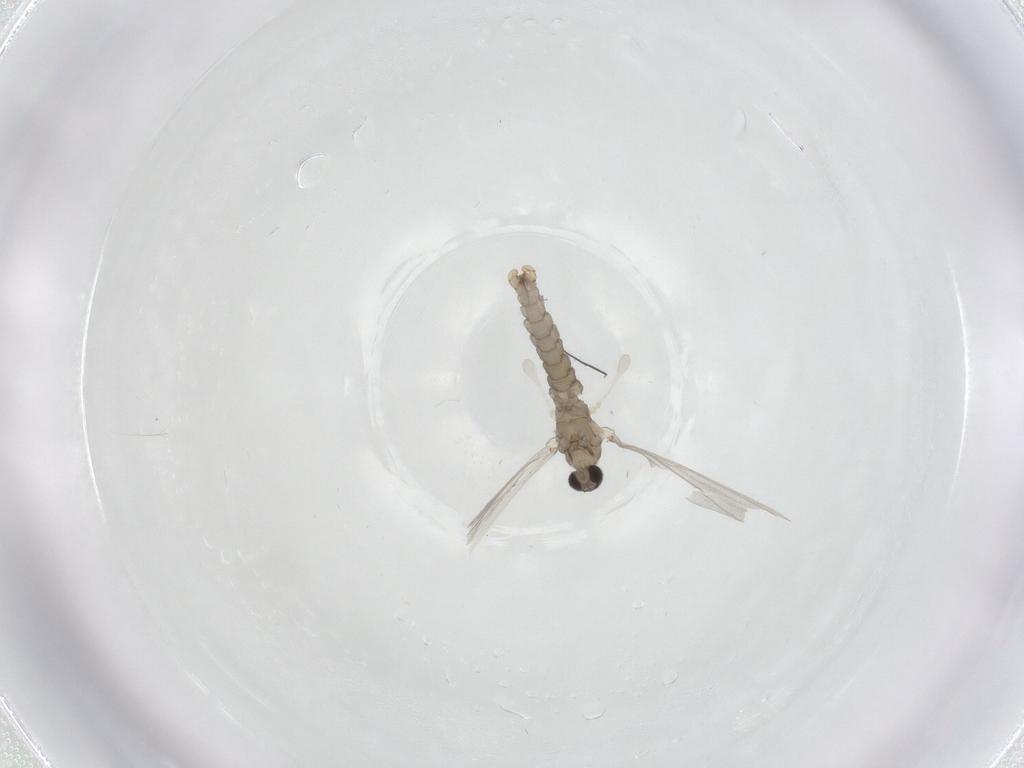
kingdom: Animalia
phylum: Arthropoda
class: Insecta
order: Diptera
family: Cecidomyiidae
